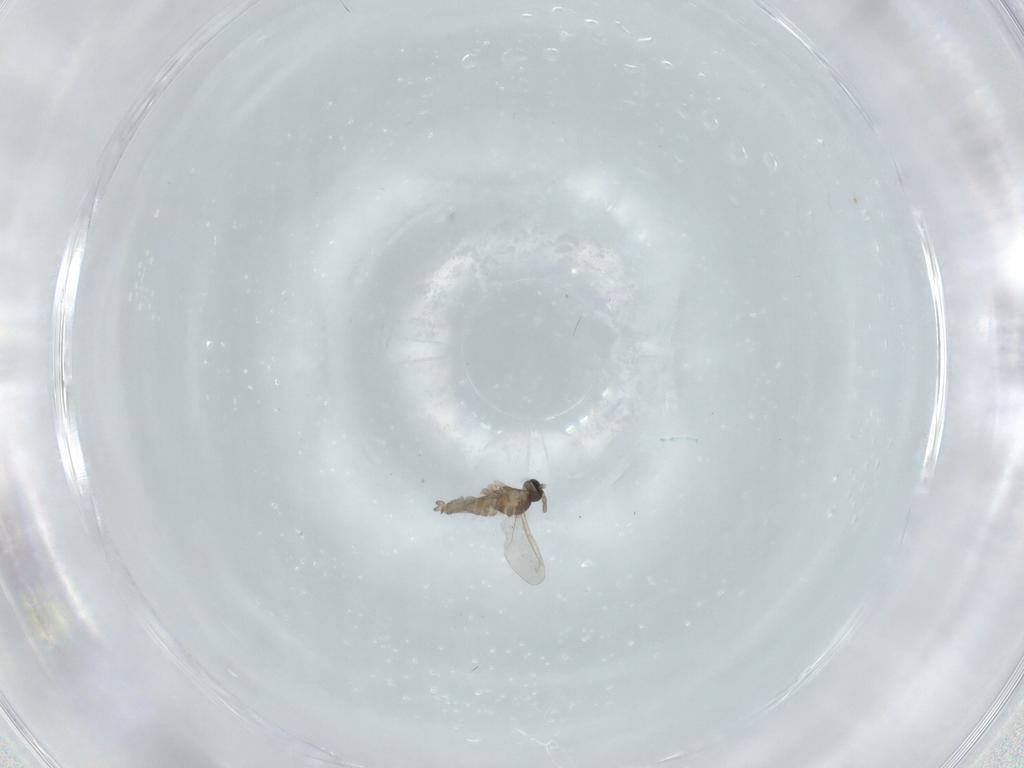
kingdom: Animalia
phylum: Arthropoda
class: Insecta
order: Diptera
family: Cecidomyiidae
